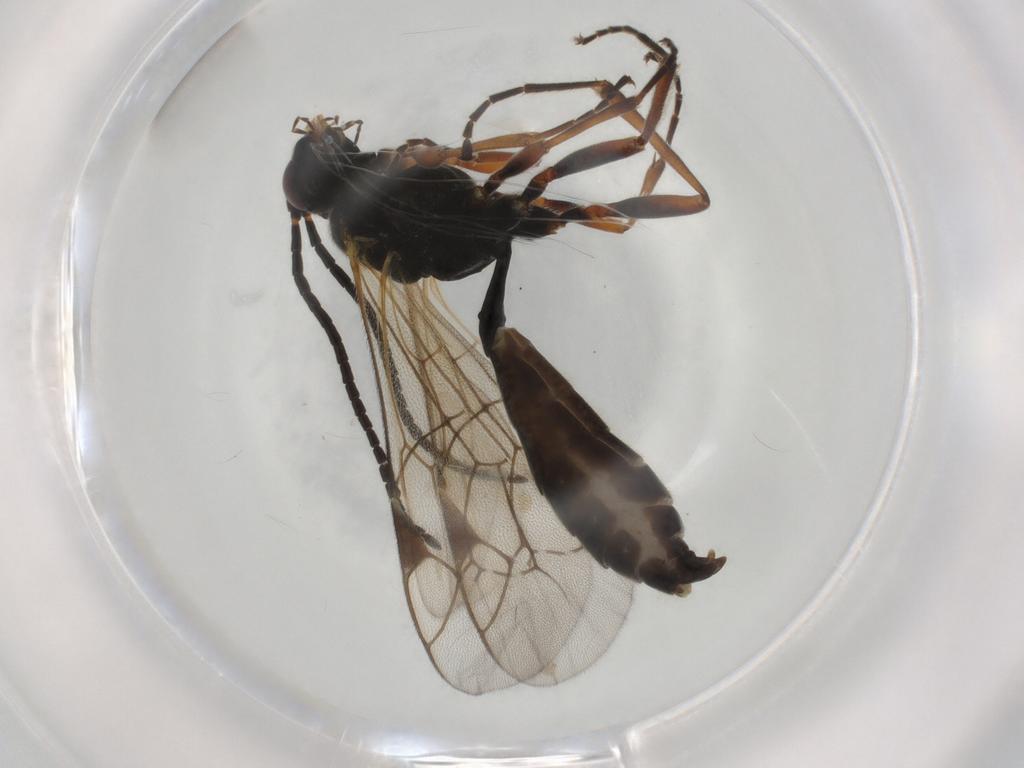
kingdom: Animalia
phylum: Arthropoda
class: Insecta
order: Hymenoptera
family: Ichneumonidae
